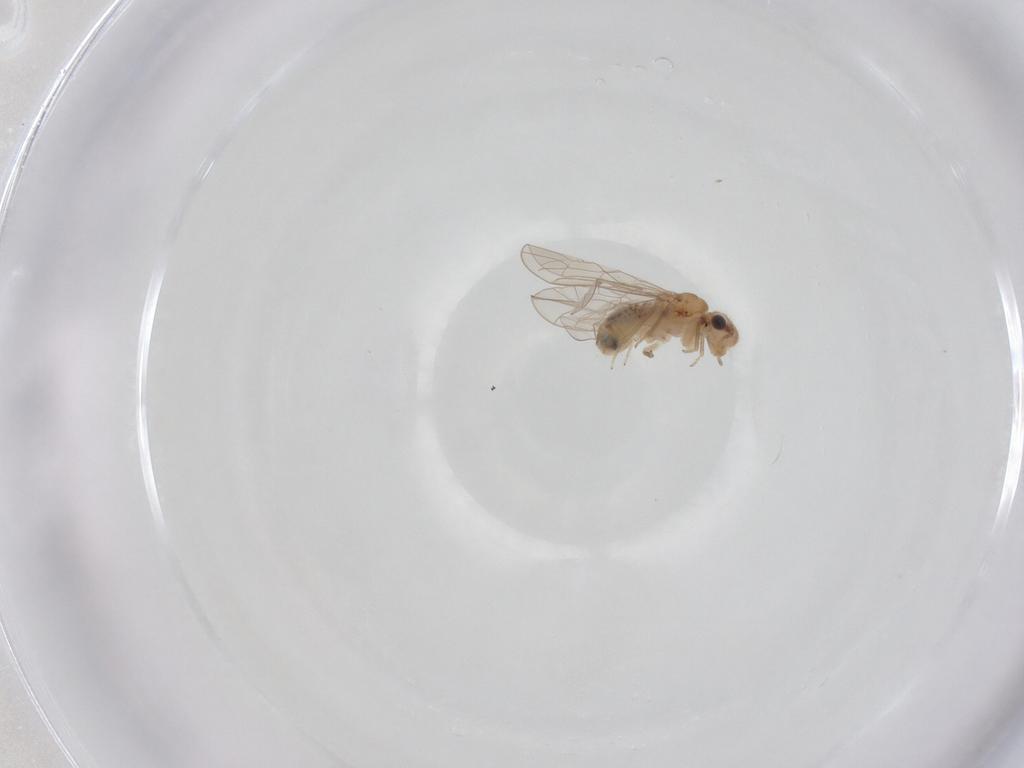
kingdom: Animalia
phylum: Arthropoda
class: Insecta
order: Psocodea
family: Ectopsocidae
